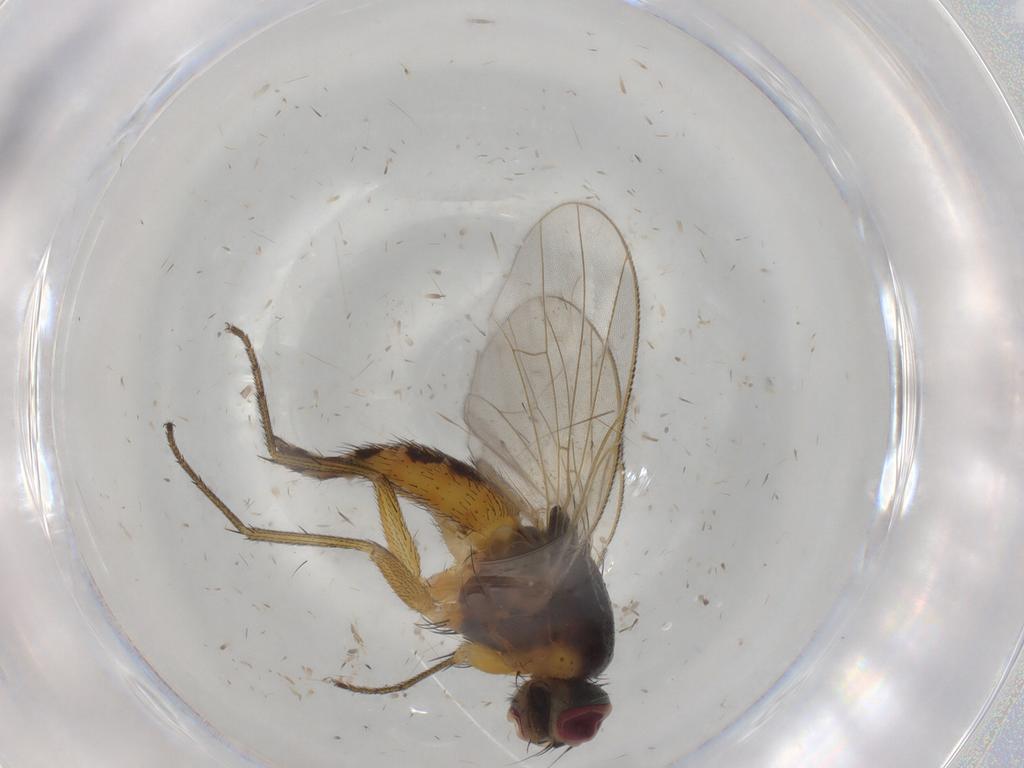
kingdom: Animalia
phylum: Arthropoda
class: Insecta
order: Diptera
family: Muscidae
